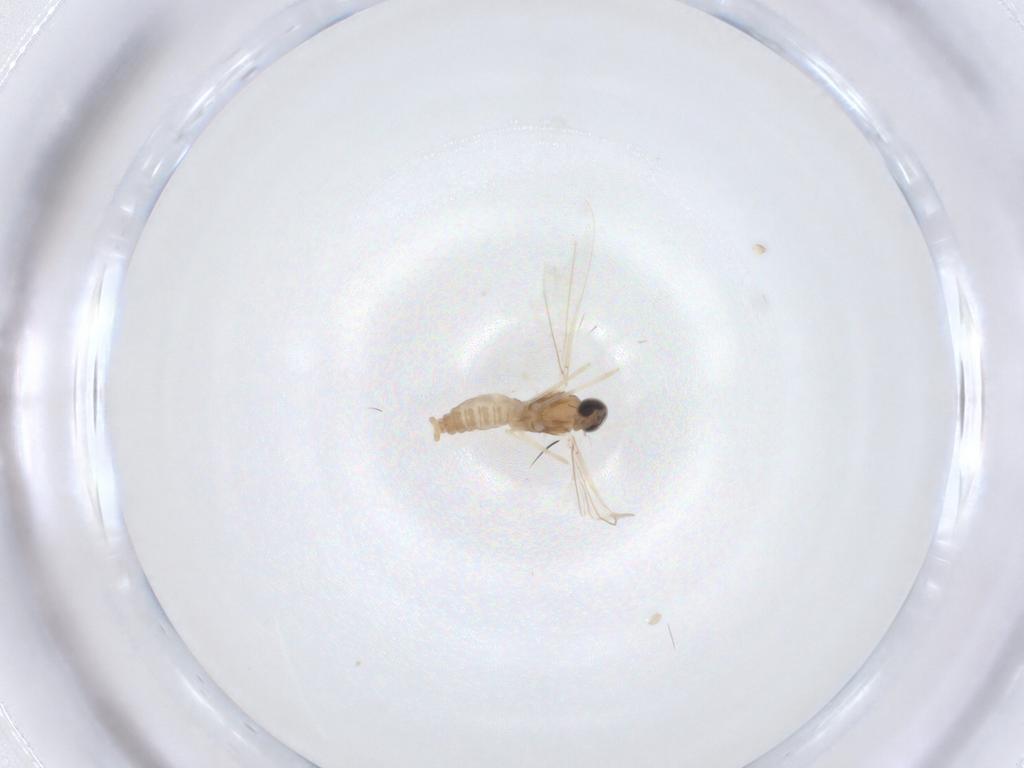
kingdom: Animalia
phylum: Arthropoda
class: Insecta
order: Diptera
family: Cecidomyiidae
